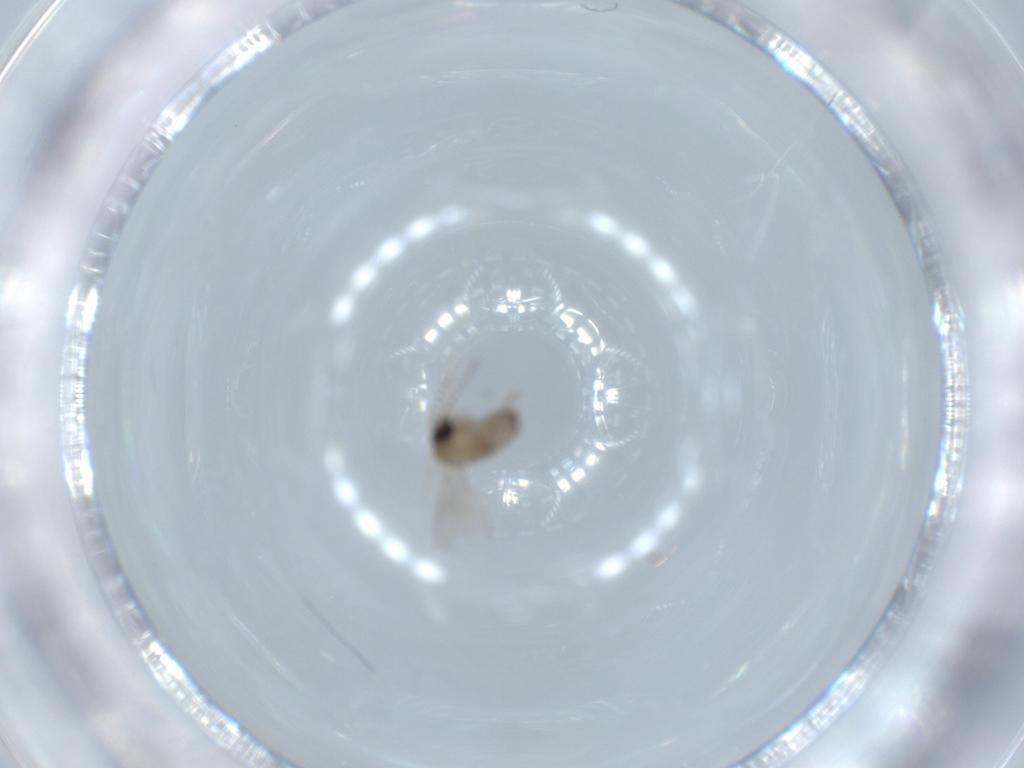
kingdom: Animalia
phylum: Arthropoda
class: Insecta
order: Diptera
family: Psychodidae
